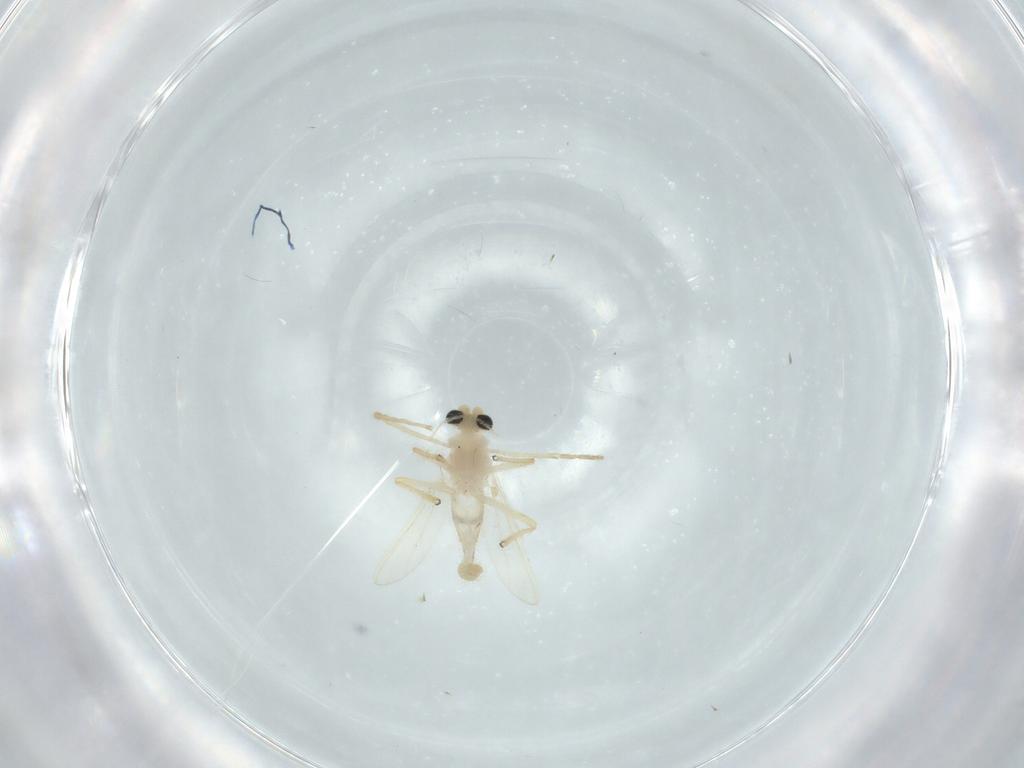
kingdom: Animalia
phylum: Arthropoda
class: Insecta
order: Diptera
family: Chironomidae
